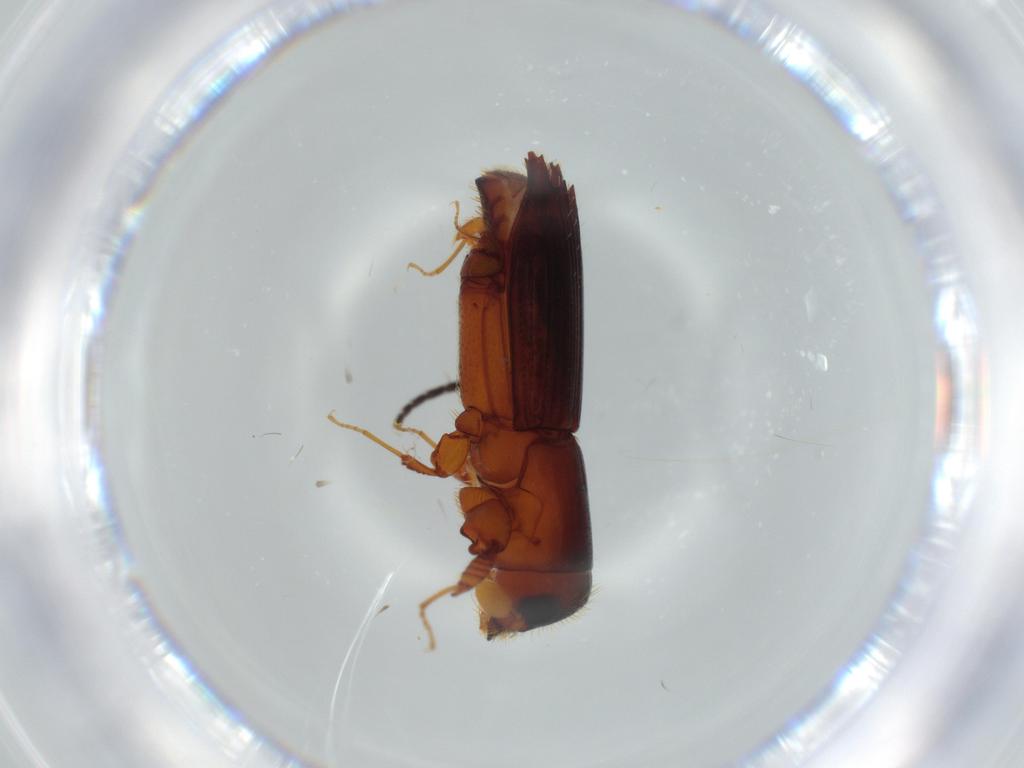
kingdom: Animalia
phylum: Arthropoda
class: Insecta
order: Coleoptera
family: Curculionidae
